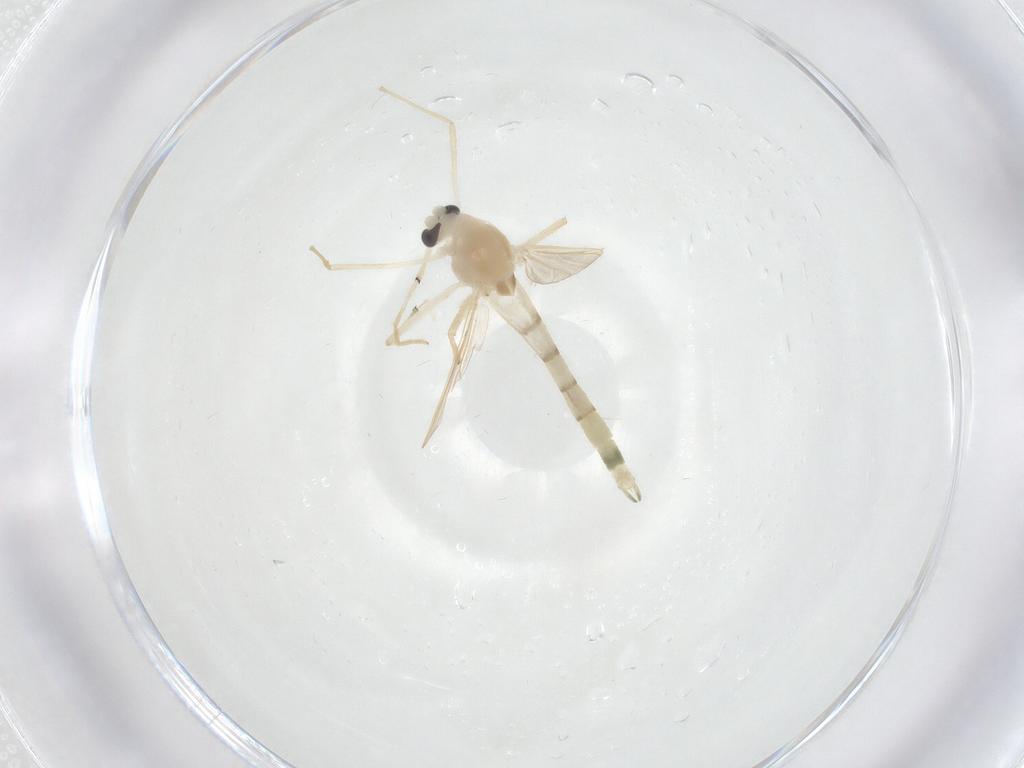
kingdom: Animalia
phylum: Arthropoda
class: Insecta
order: Diptera
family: Chironomidae
